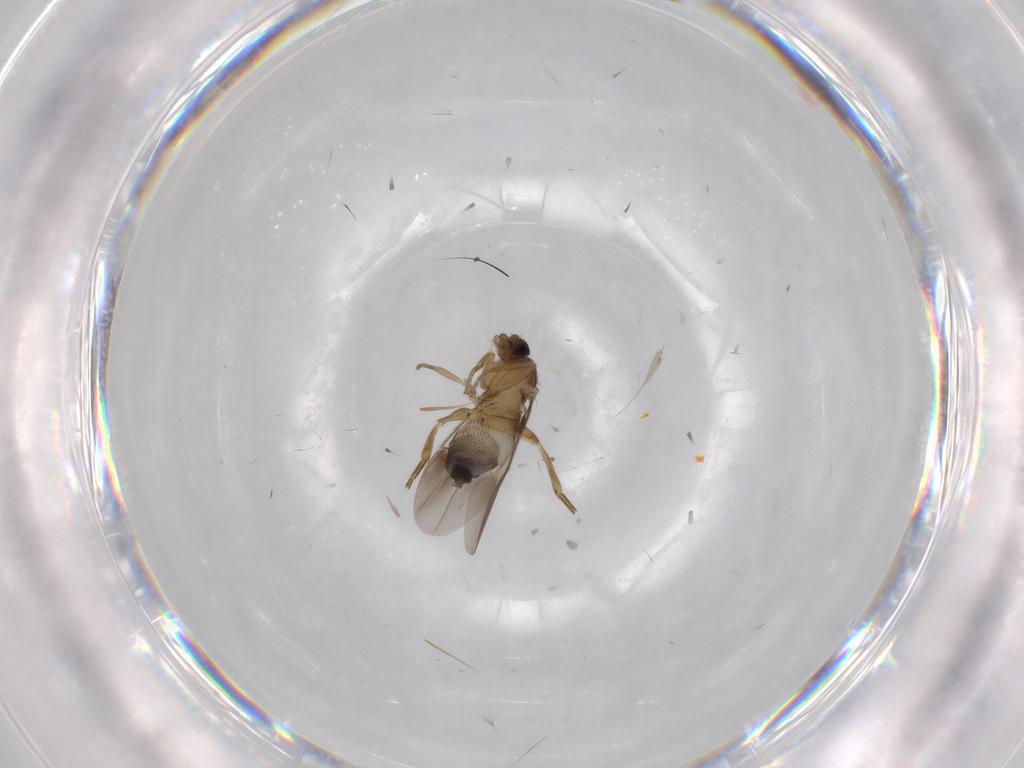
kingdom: Animalia
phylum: Arthropoda
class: Insecta
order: Diptera
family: Phoridae
